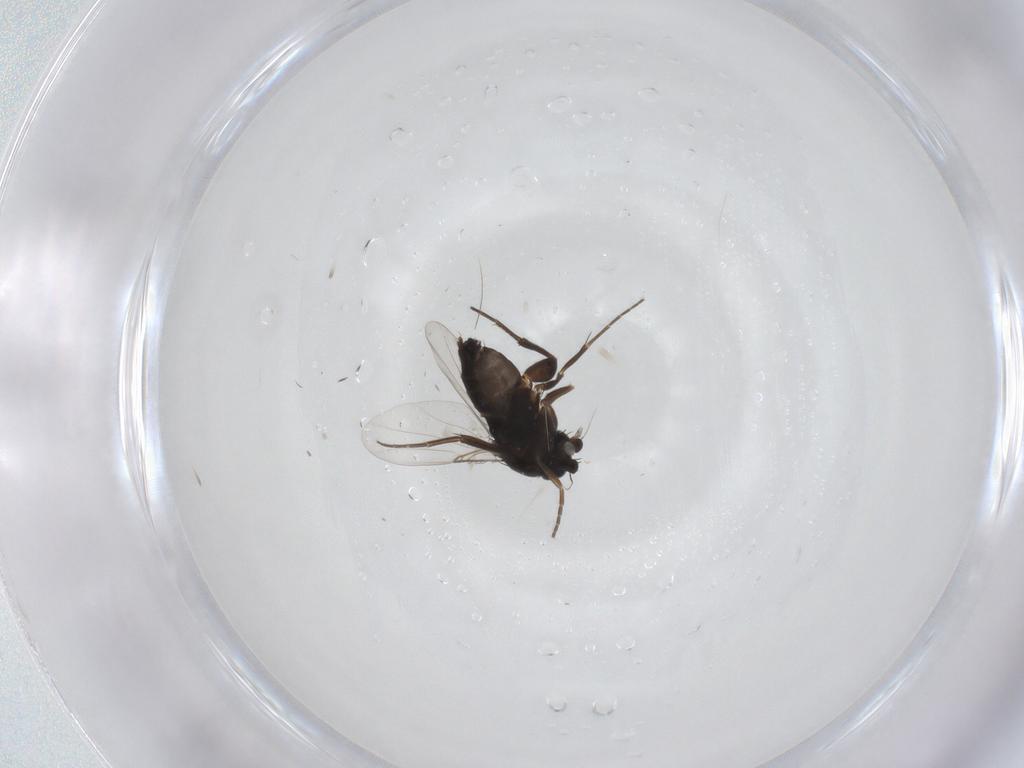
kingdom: Animalia
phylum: Arthropoda
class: Insecta
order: Diptera
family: Phoridae
